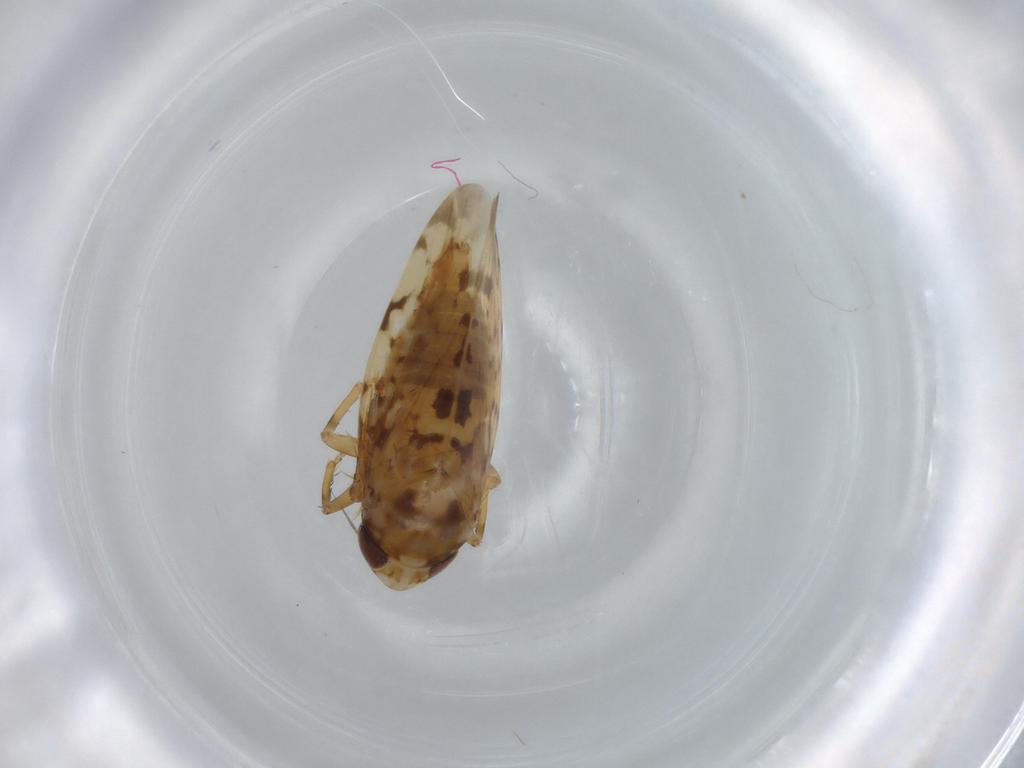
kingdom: Animalia
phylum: Arthropoda
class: Insecta
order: Hemiptera
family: Cicadellidae
